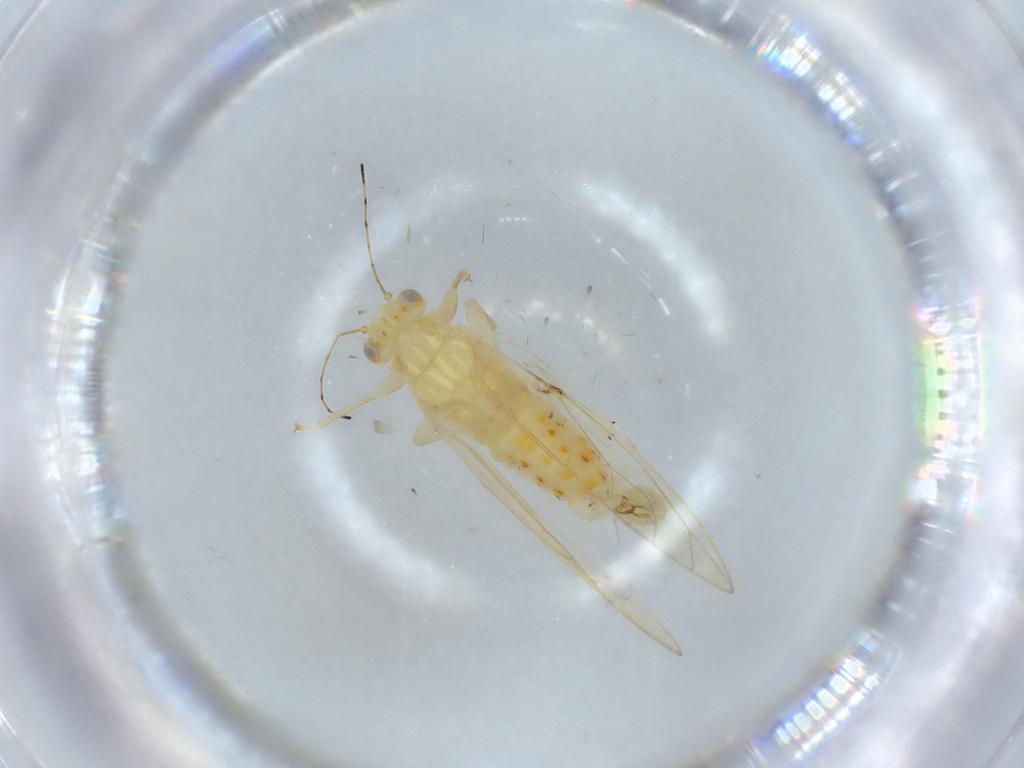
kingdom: Animalia
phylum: Arthropoda
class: Insecta
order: Hemiptera
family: Triozidae
